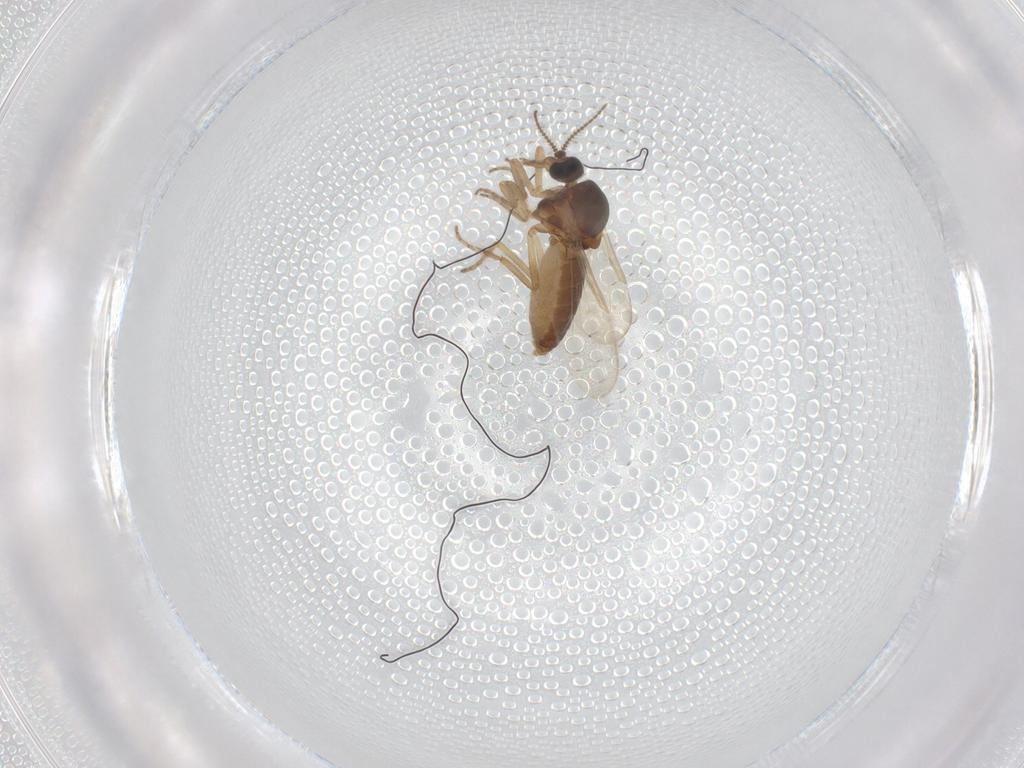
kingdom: Animalia
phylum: Arthropoda
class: Insecta
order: Diptera
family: Ceratopogonidae
